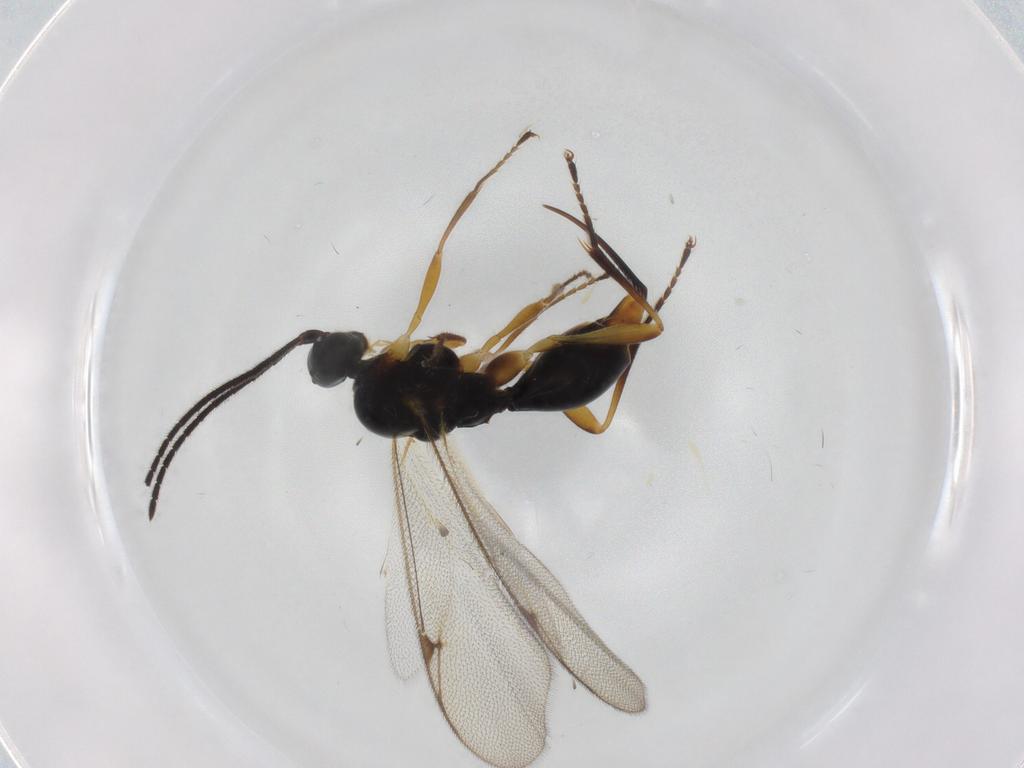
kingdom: Animalia
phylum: Arthropoda
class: Insecta
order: Hymenoptera
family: Proctotrupidae
